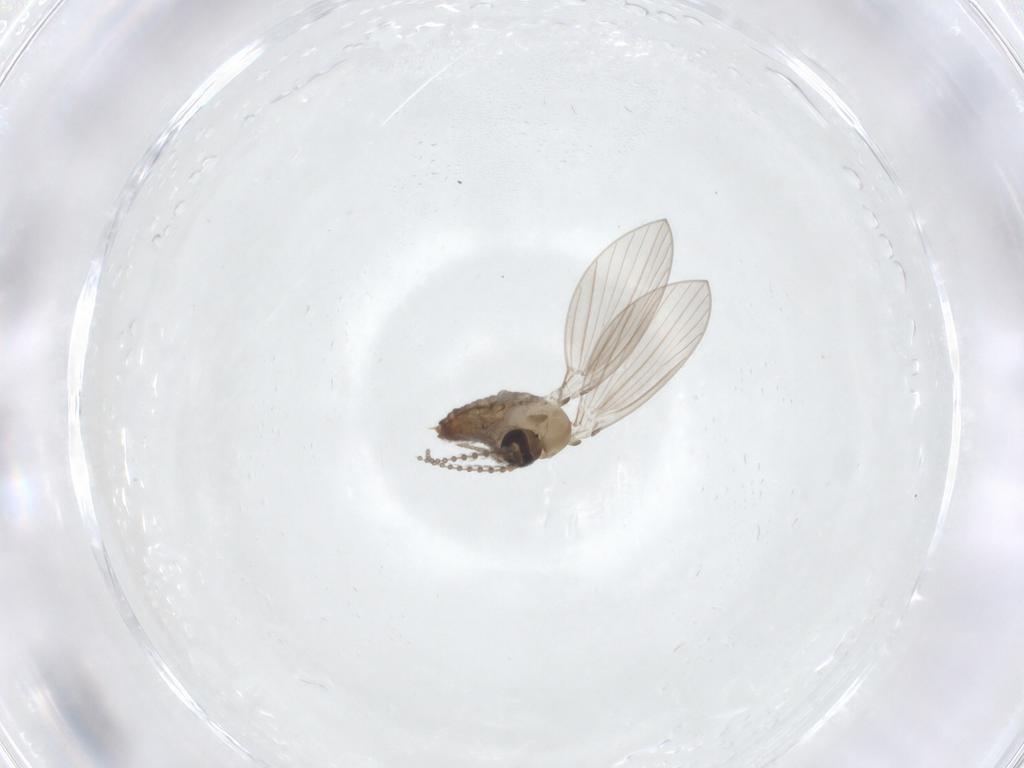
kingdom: Animalia
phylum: Arthropoda
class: Insecta
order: Diptera
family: Psychodidae
